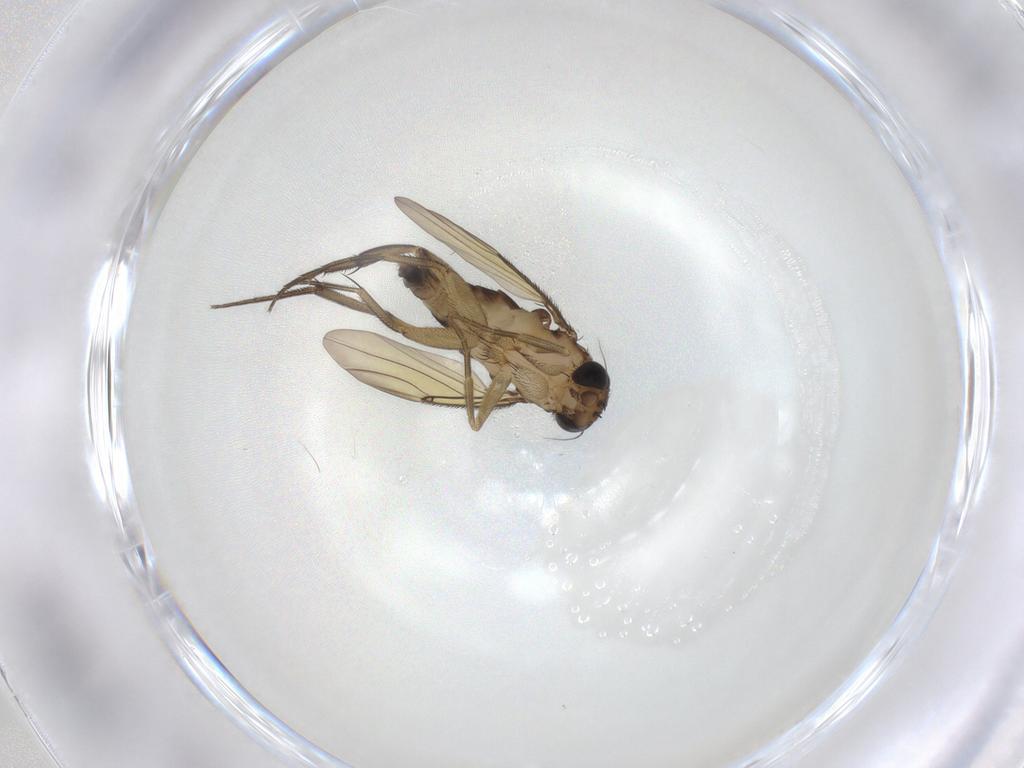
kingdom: Animalia
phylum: Arthropoda
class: Insecta
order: Diptera
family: Phoridae
